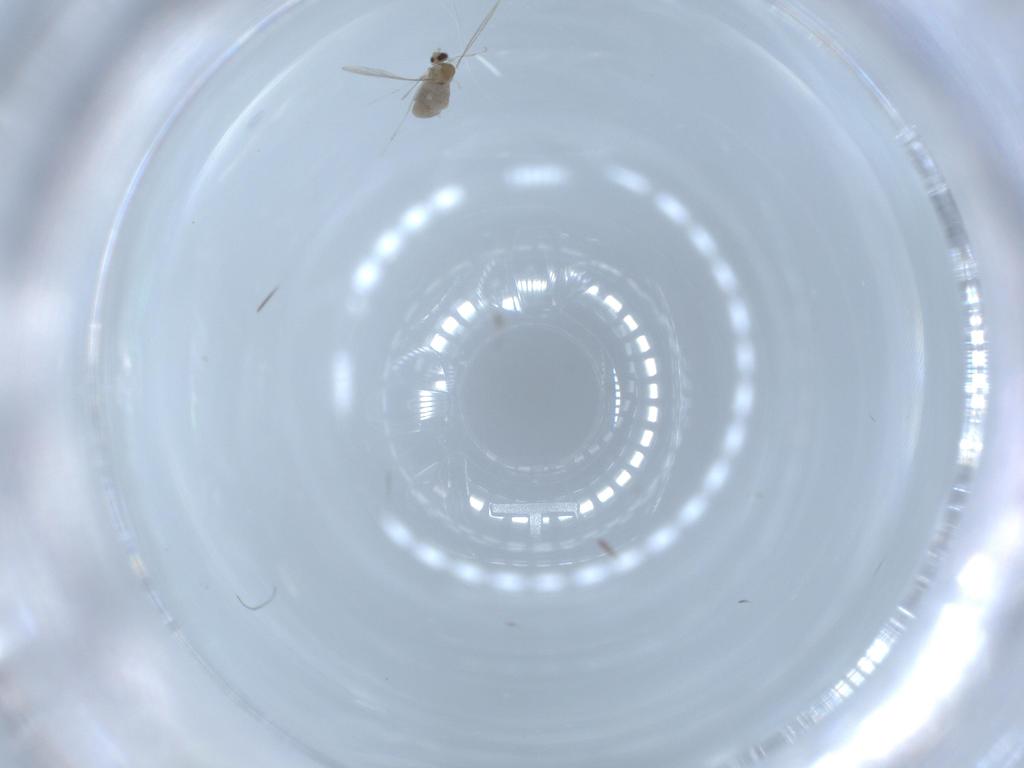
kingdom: Animalia
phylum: Arthropoda
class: Insecta
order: Diptera
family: Cecidomyiidae
